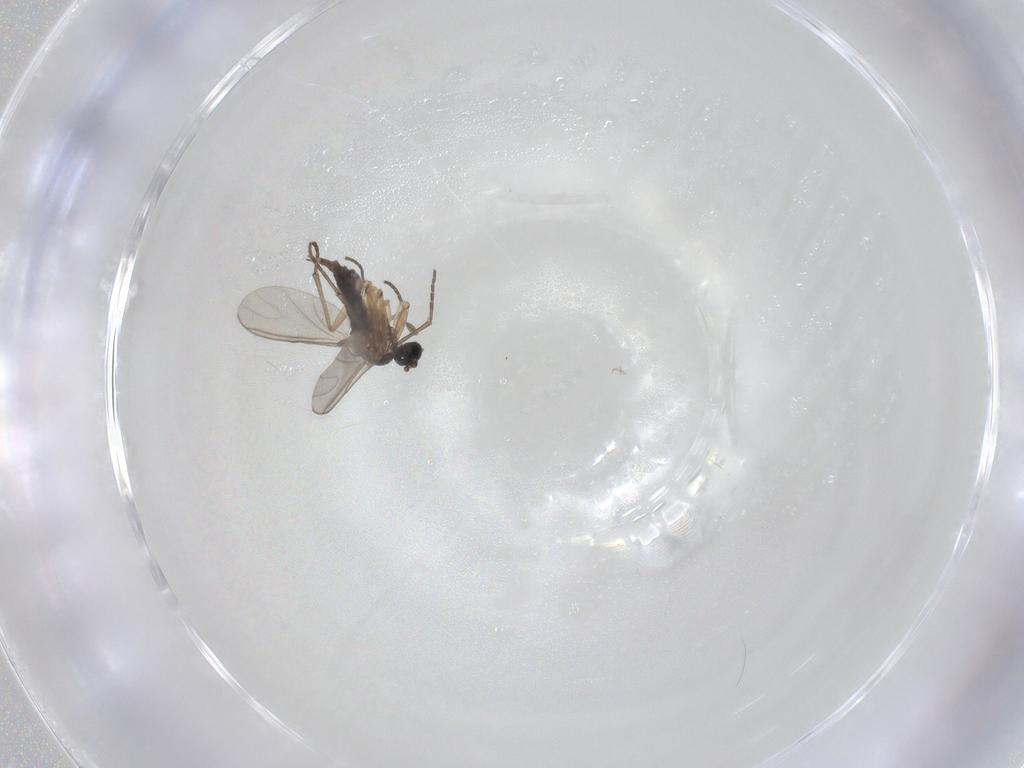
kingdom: Animalia
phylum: Arthropoda
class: Insecta
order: Diptera
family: Chironomidae
